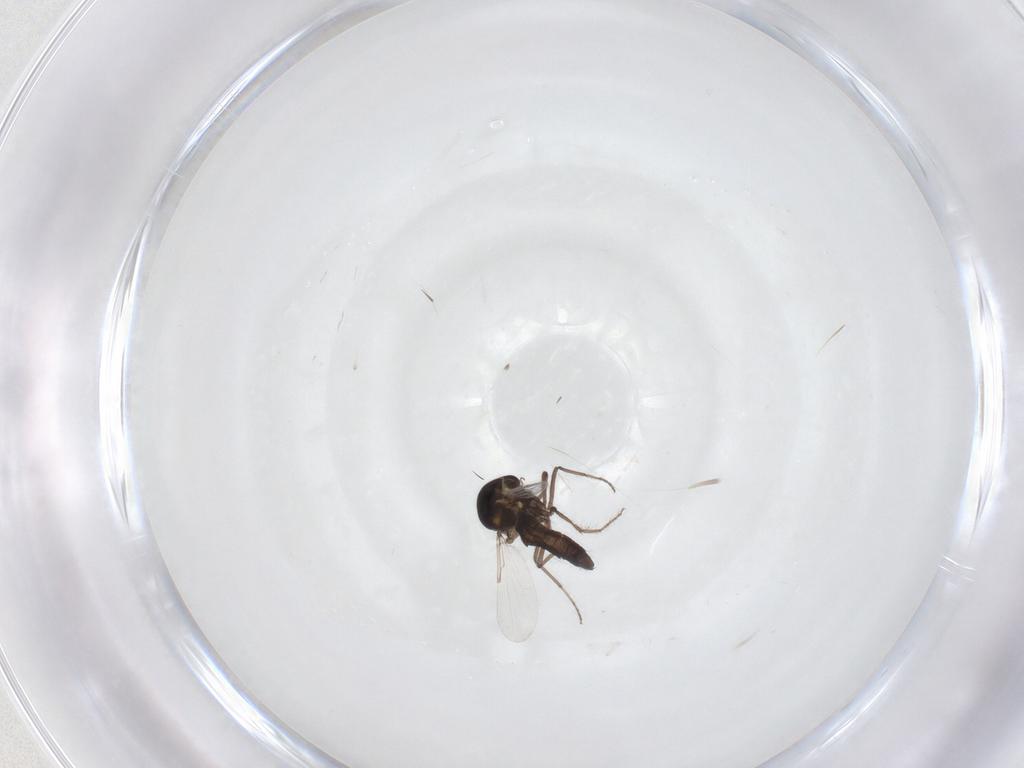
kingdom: Animalia
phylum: Arthropoda
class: Insecta
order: Diptera
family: Ceratopogonidae
